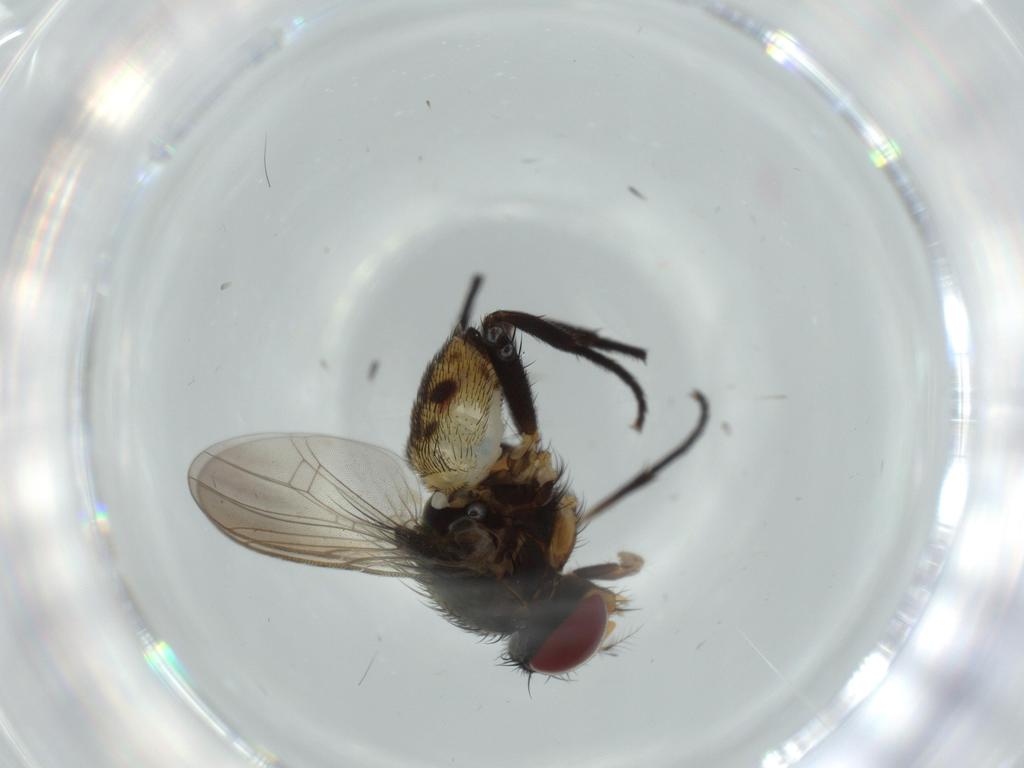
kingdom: Animalia
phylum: Arthropoda
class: Insecta
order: Diptera
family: Anthomyiidae
